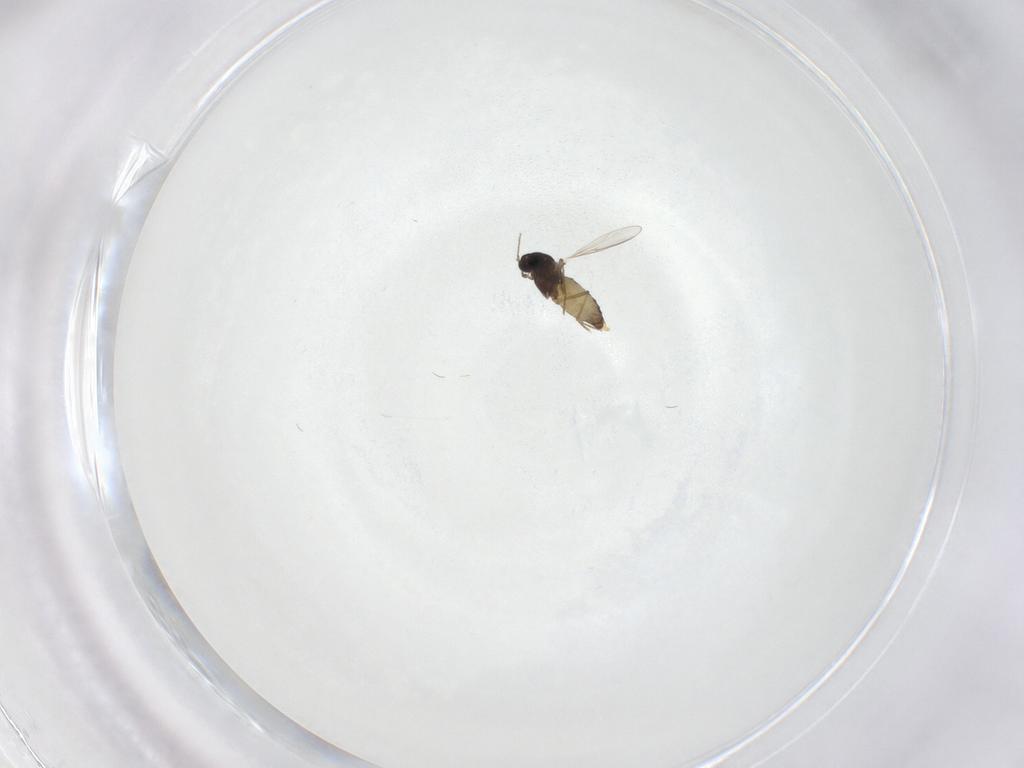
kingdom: Animalia
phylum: Arthropoda
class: Insecta
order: Diptera
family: Chironomidae
